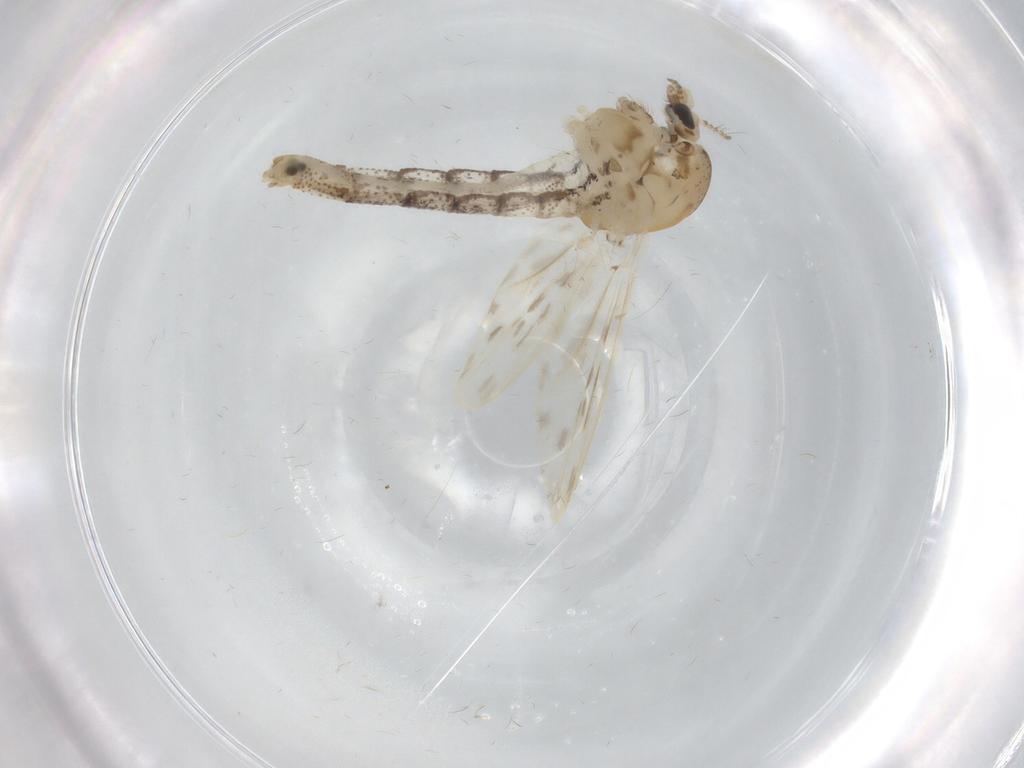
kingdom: Animalia
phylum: Arthropoda
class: Insecta
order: Diptera
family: Chaoboridae
